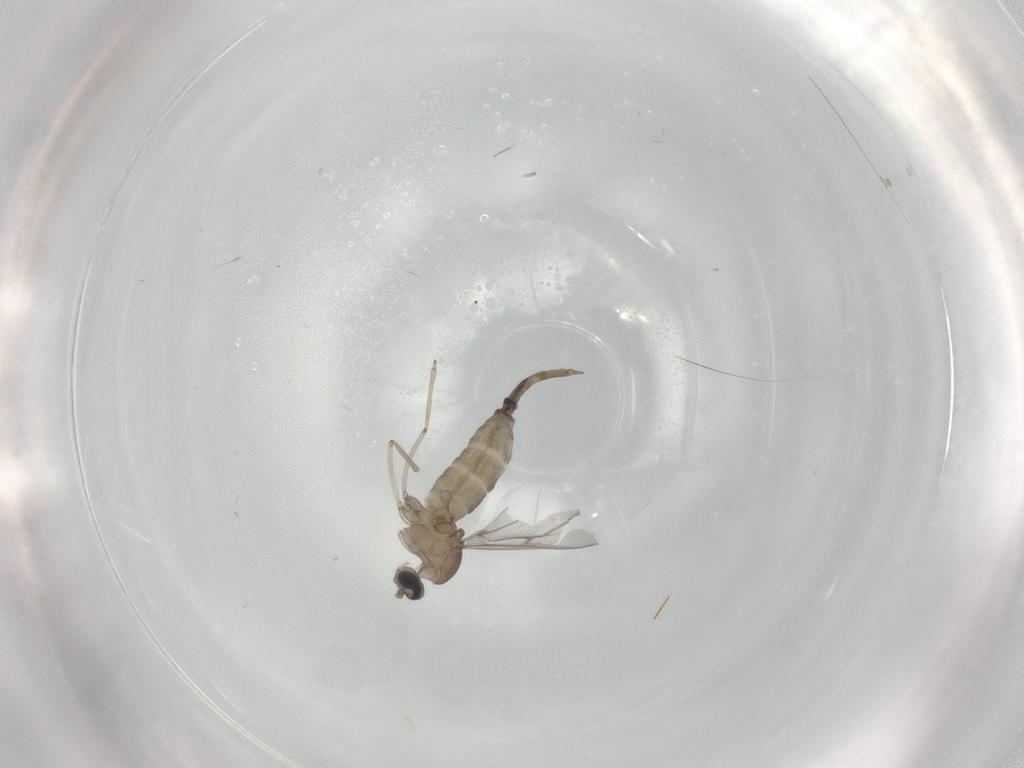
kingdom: Animalia
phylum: Arthropoda
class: Insecta
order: Diptera
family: Cecidomyiidae
